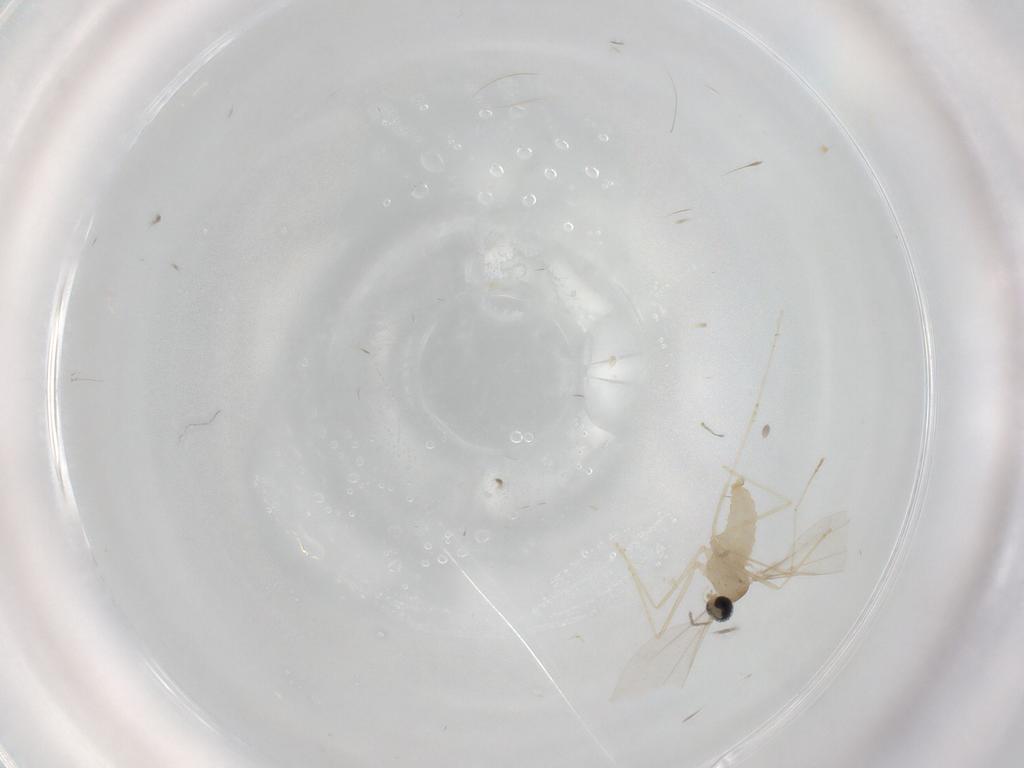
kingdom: Animalia
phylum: Arthropoda
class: Insecta
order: Diptera
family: Cecidomyiidae
